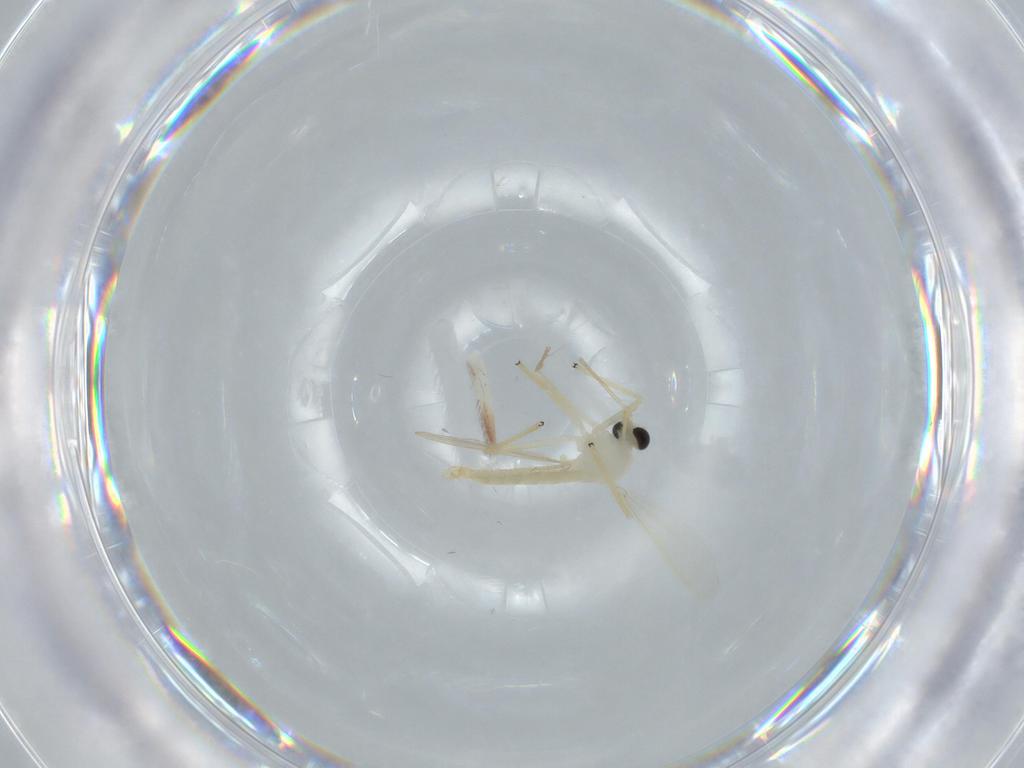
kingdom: Animalia
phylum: Arthropoda
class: Insecta
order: Diptera
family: Chironomidae
